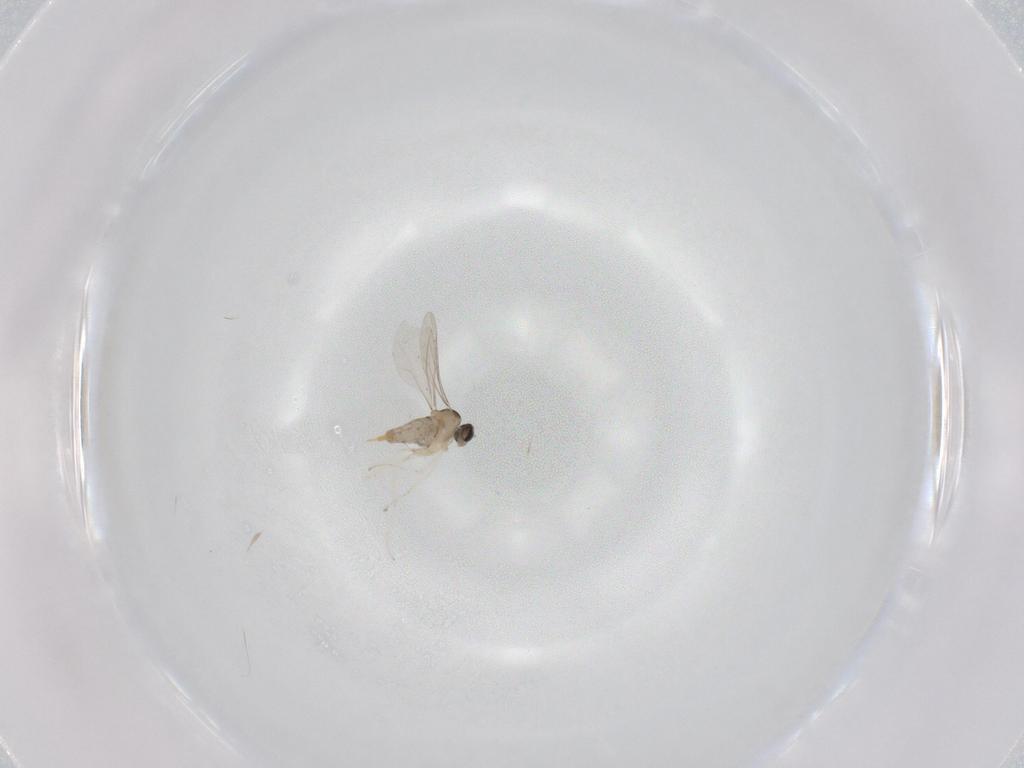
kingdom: Animalia
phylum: Arthropoda
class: Insecta
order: Diptera
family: Cecidomyiidae
